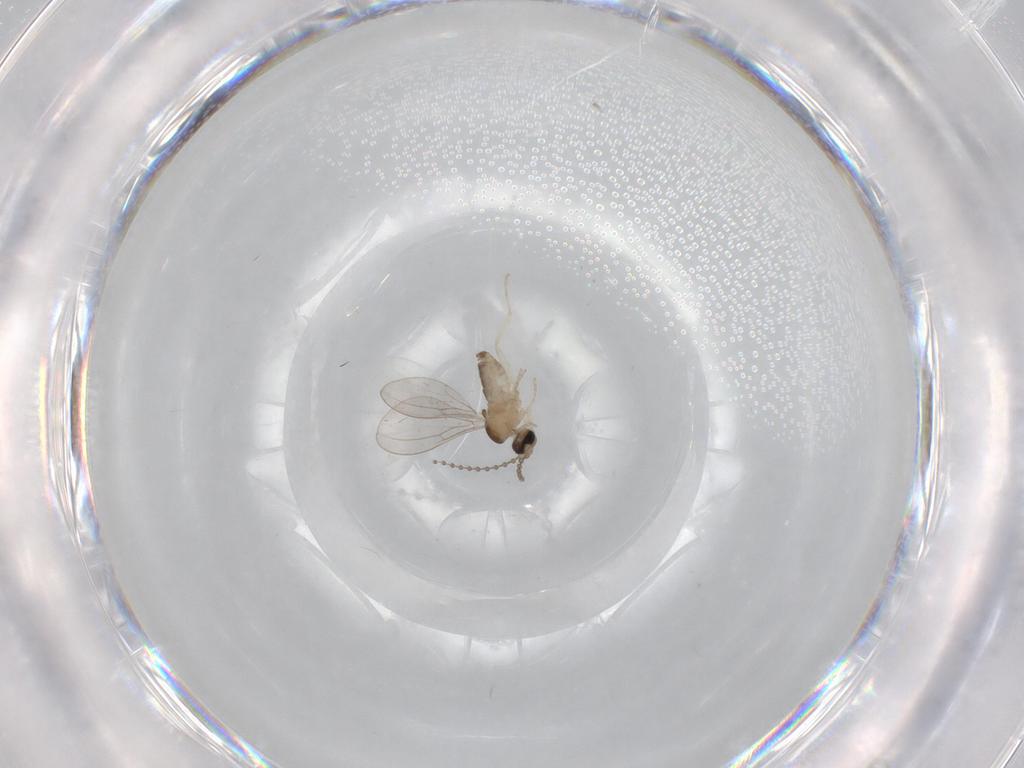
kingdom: Animalia
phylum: Arthropoda
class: Insecta
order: Diptera
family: Cecidomyiidae
